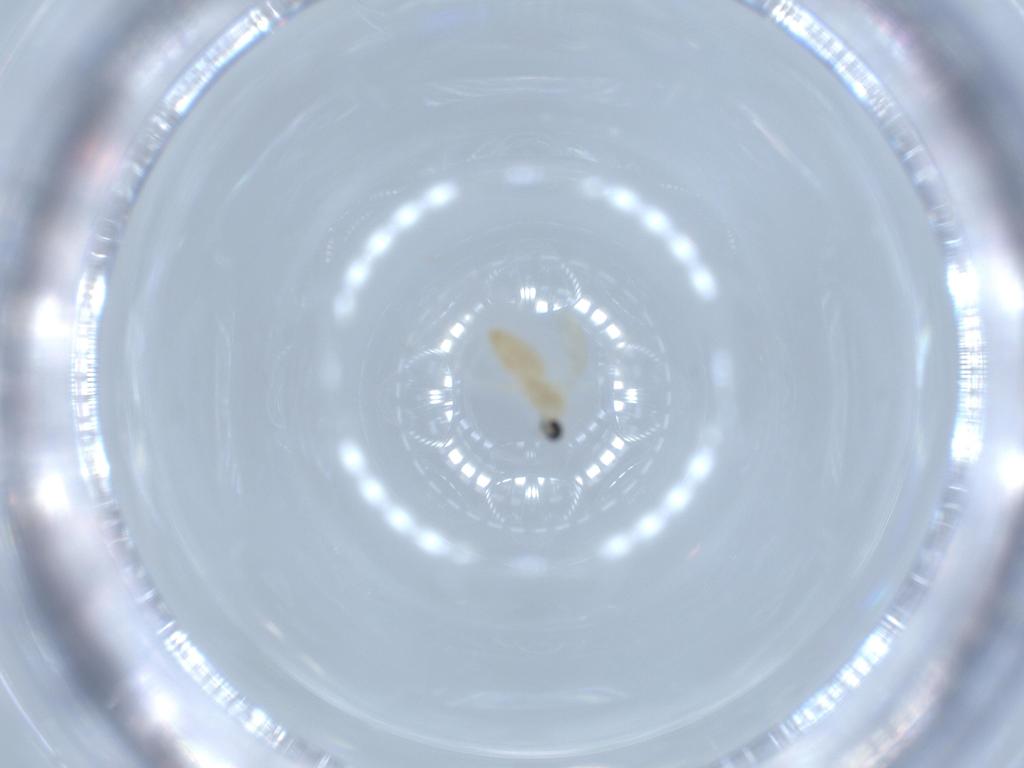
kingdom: Animalia
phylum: Arthropoda
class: Insecta
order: Diptera
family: Cecidomyiidae
